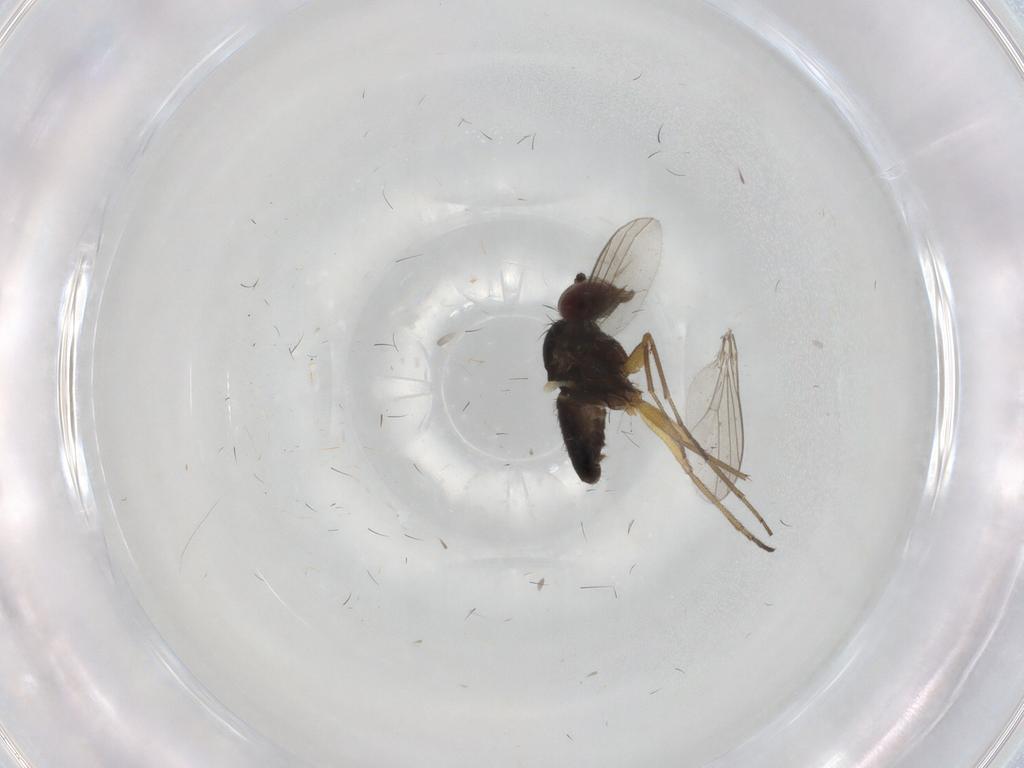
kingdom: Animalia
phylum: Arthropoda
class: Insecta
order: Diptera
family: Dolichopodidae
